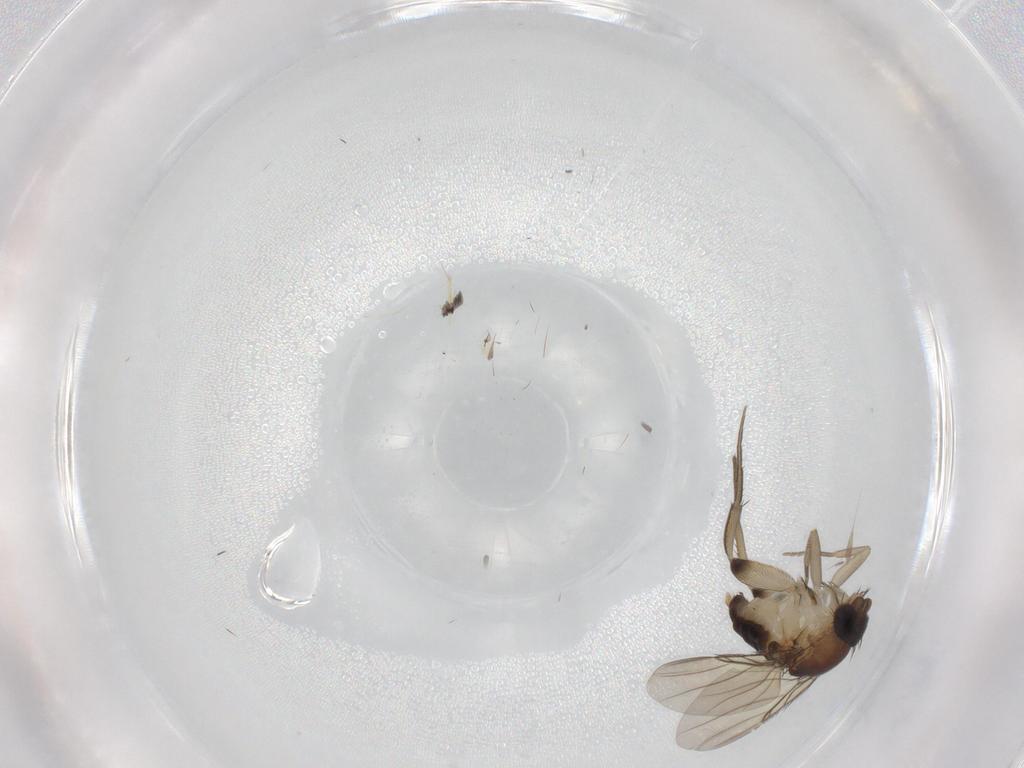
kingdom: Animalia
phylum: Arthropoda
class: Insecta
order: Diptera
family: Phoridae
